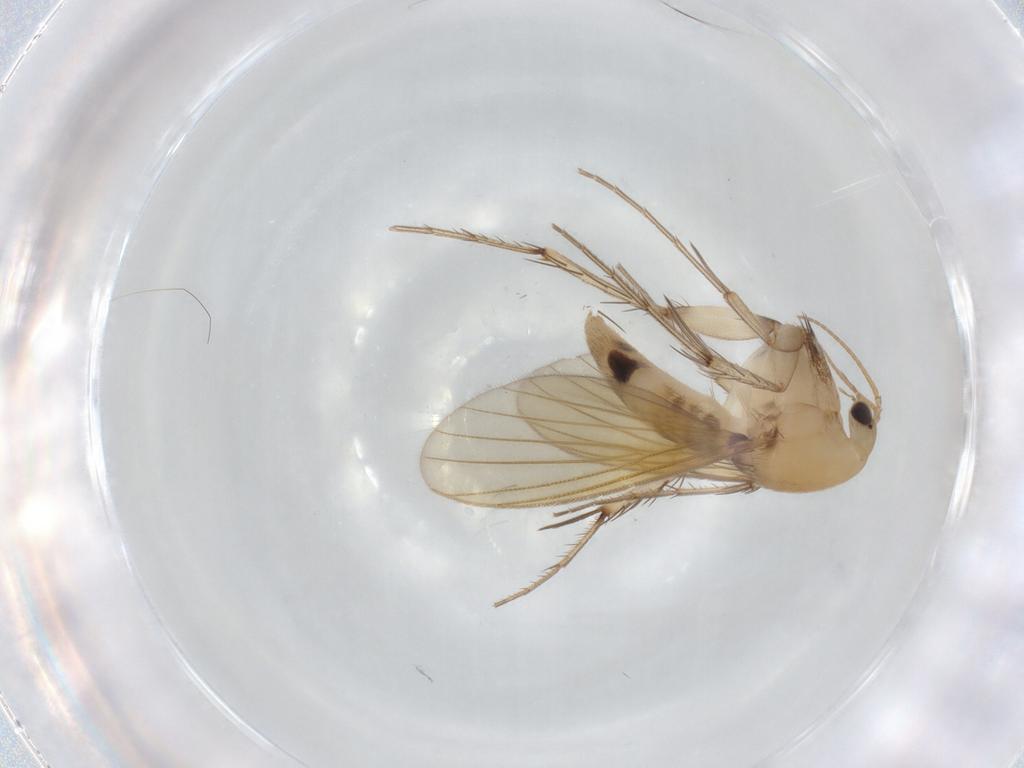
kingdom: Animalia
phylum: Arthropoda
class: Insecta
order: Diptera
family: Mycetophilidae
